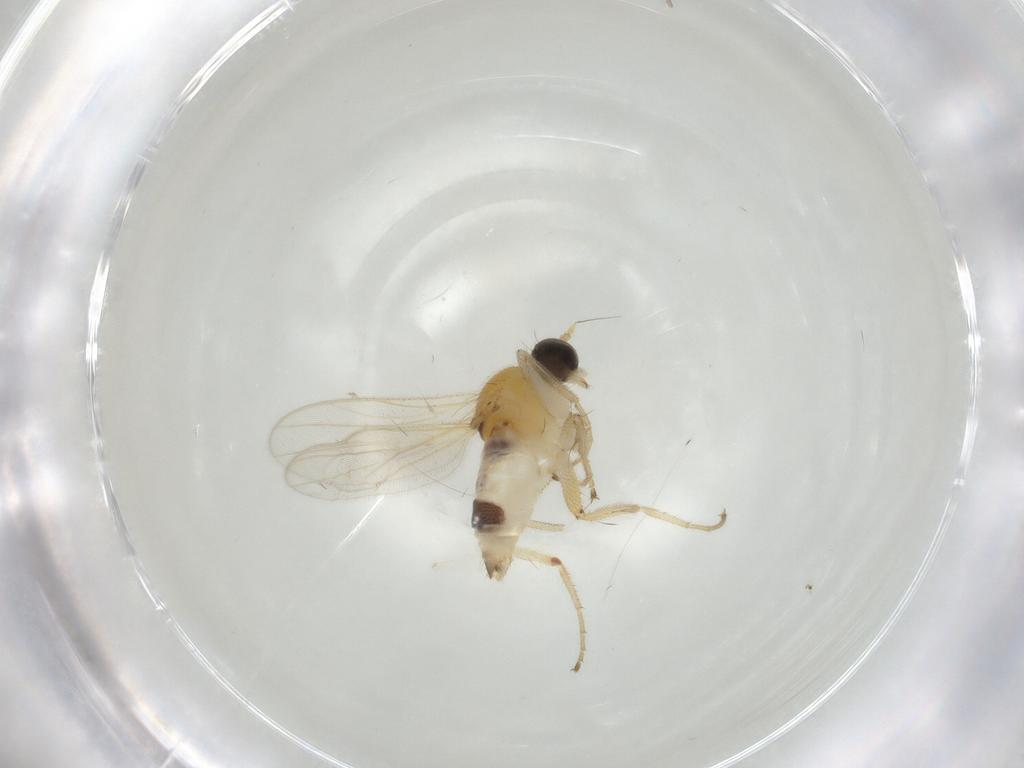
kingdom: Animalia
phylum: Arthropoda
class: Insecta
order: Diptera
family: Hybotidae
